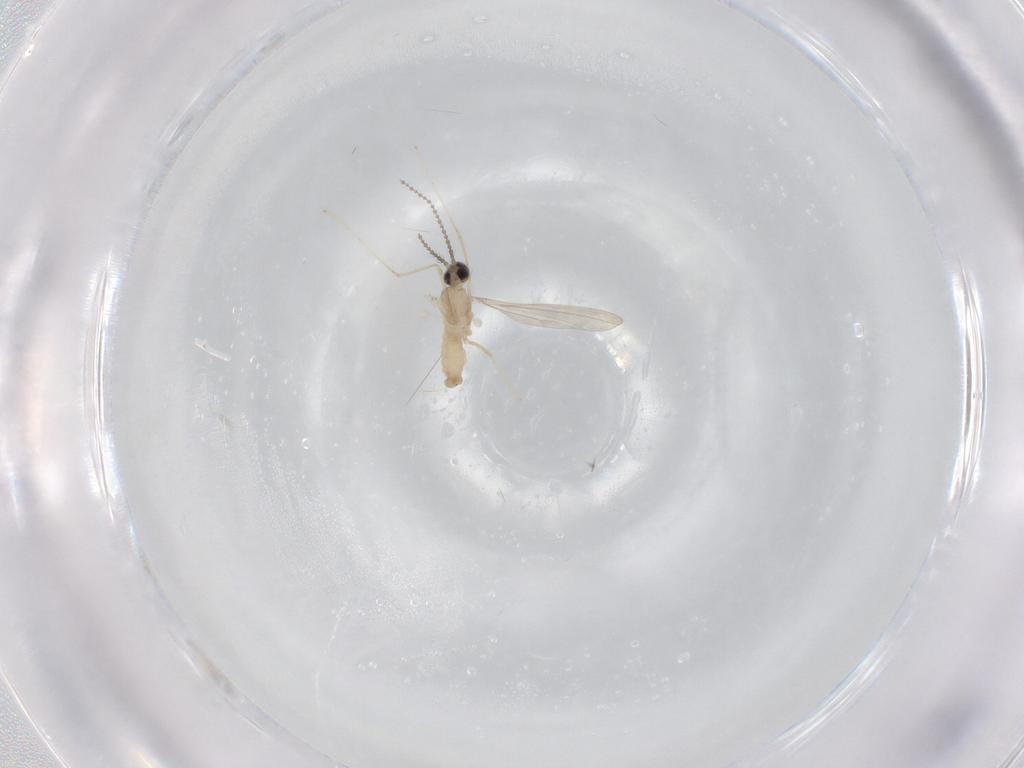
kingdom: Animalia
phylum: Arthropoda
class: Insecta
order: Diptera
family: Cecidomyiidae
